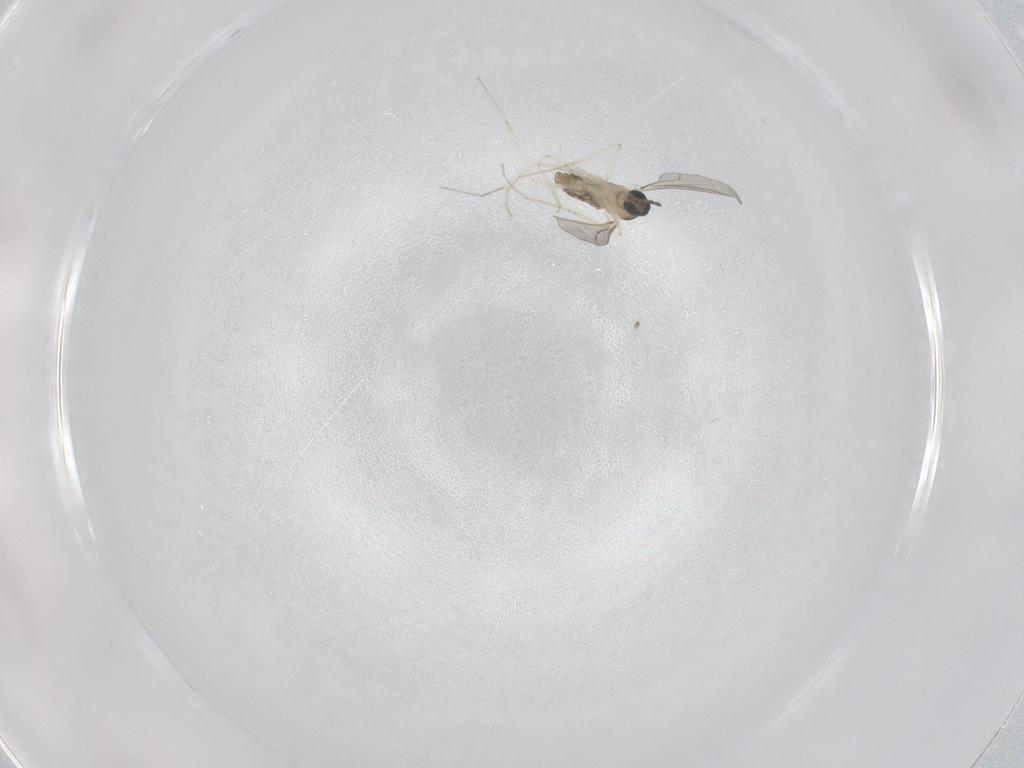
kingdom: Animalia
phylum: Arthropoda
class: Insecta
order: Diptera
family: Cecidomyiidae
